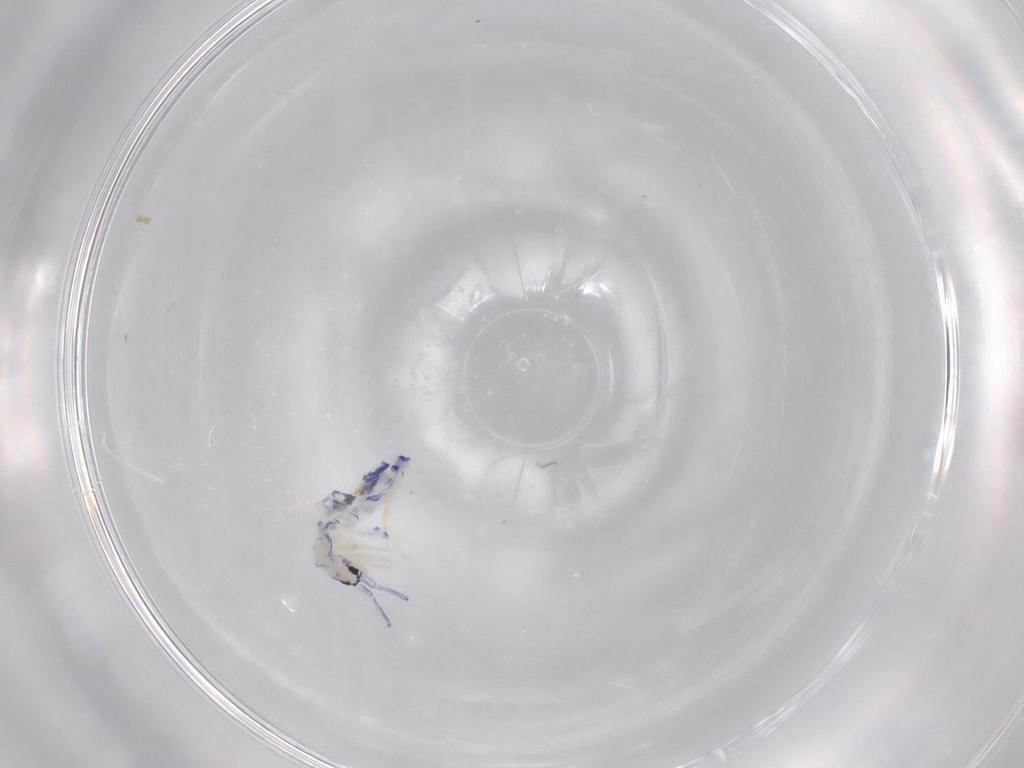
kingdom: Animalia
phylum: Arthropoda
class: Collembola
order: Entomobryomorpha
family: Entomobryidae
